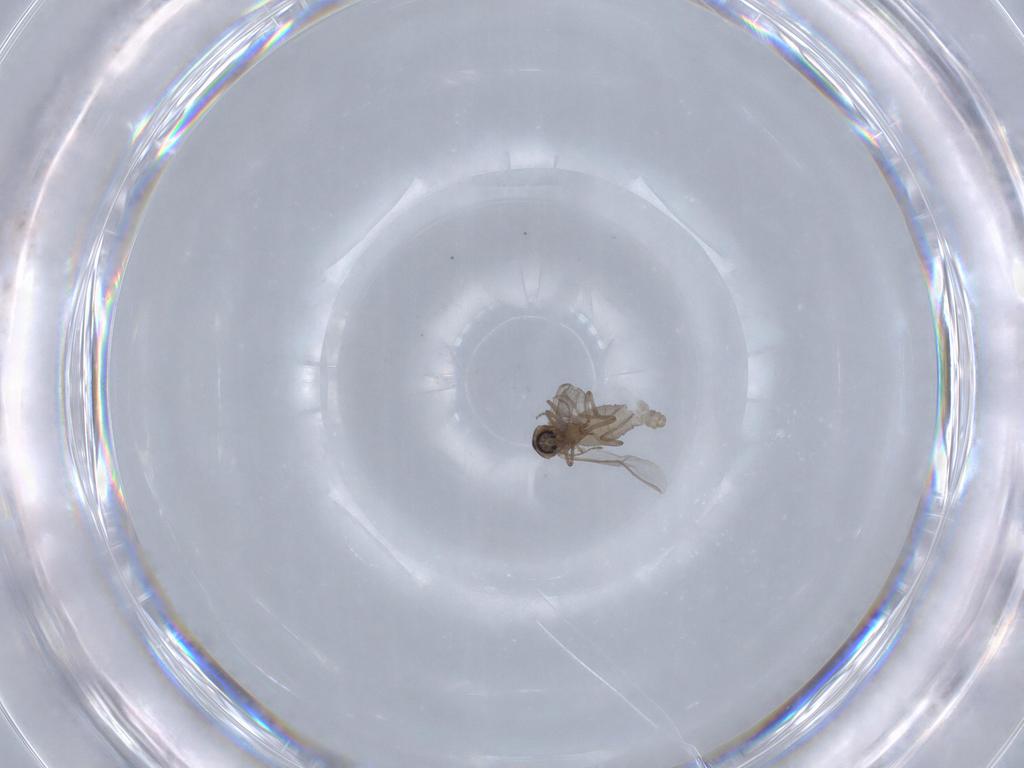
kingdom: Animalia
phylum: Arthropoda
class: Insecta
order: Diptera
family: Ceratopogonidae
